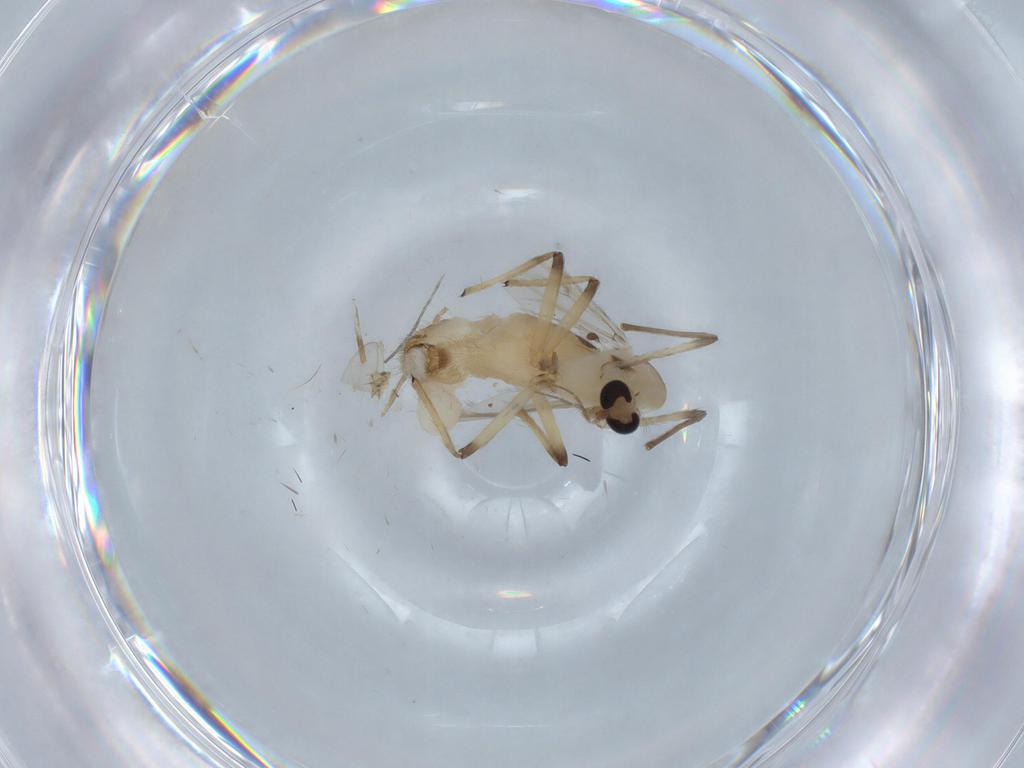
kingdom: Animalia
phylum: Arthropoda
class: Insecta
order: Diptera
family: Chironomidae
